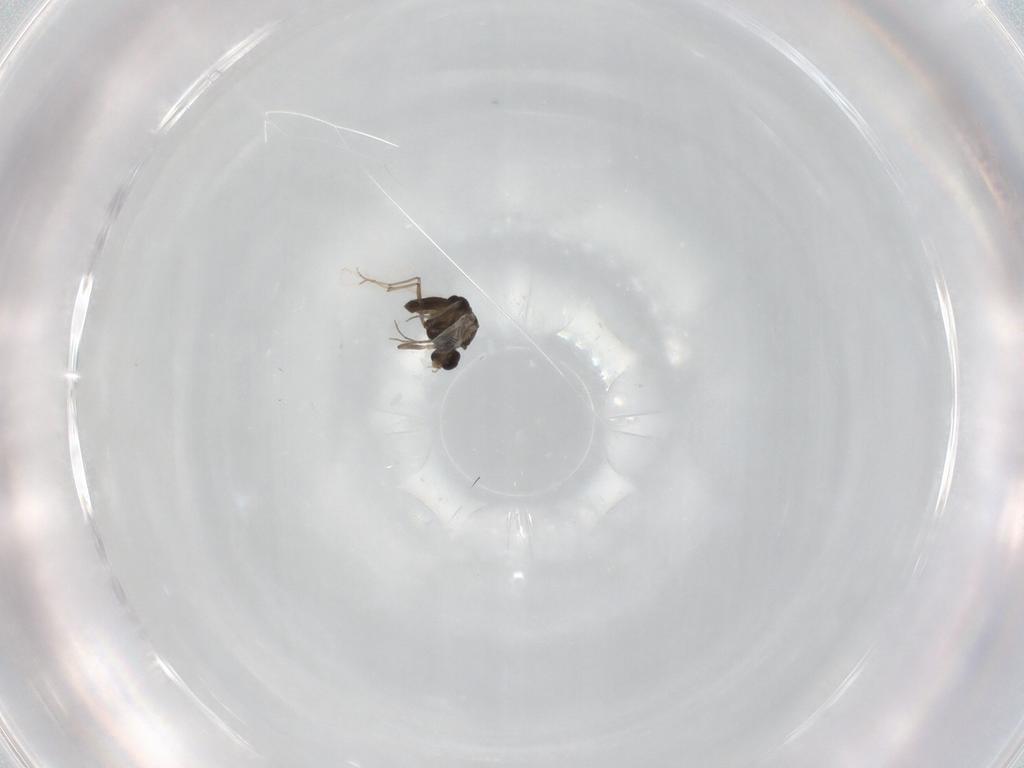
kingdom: Animalia
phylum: Arthropoda
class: Insecta
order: Diptera
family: Chironomidae
